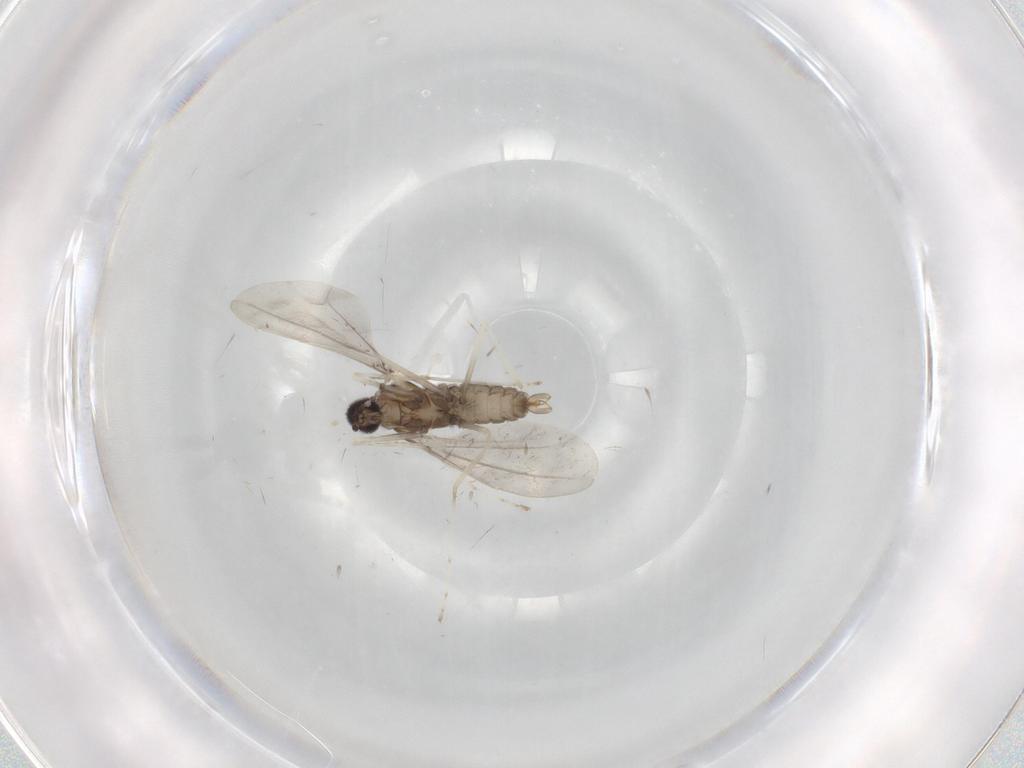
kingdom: Animalia
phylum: Arthropoda
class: Insecta
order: Diptera
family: Cecidomyiidae
